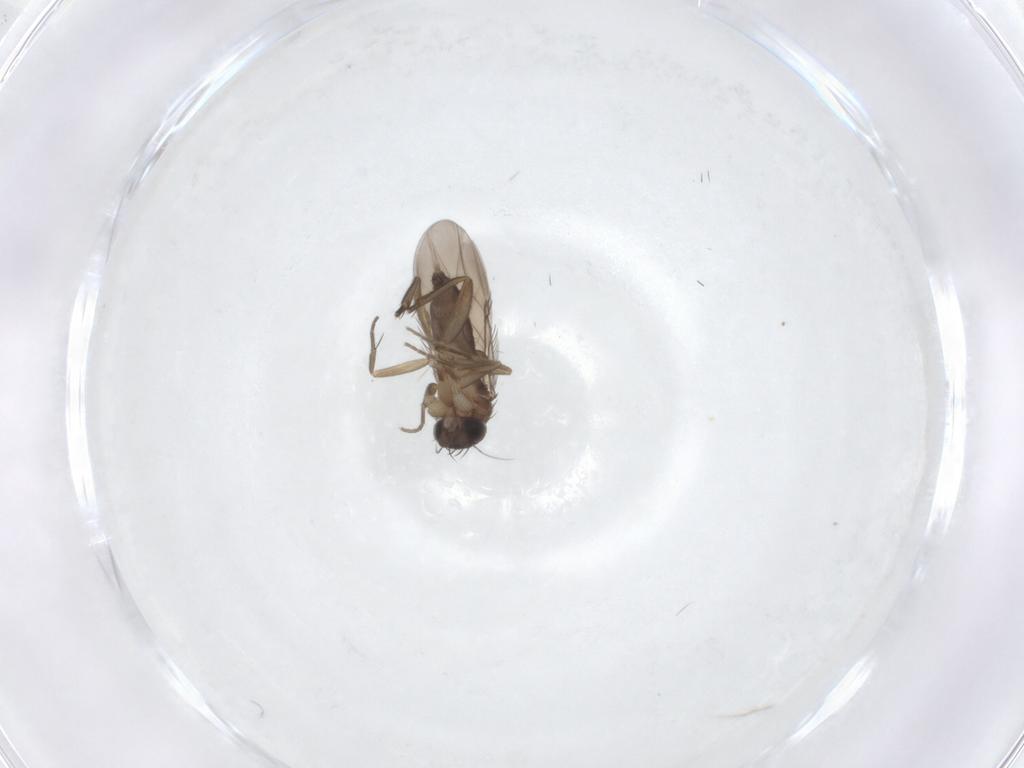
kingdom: Animalia
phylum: Arthropoda
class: Insecta
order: Diptera
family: Phoridae
